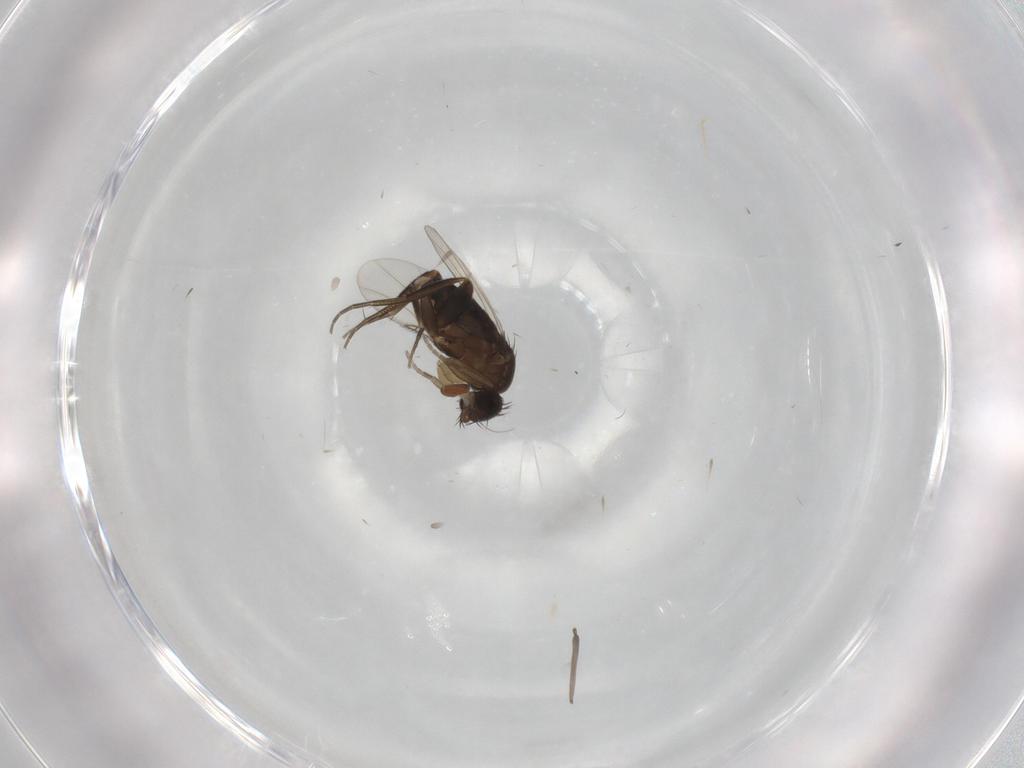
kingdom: Animalia
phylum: Arthropoda
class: Insecta
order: Diptera
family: Phoridae
